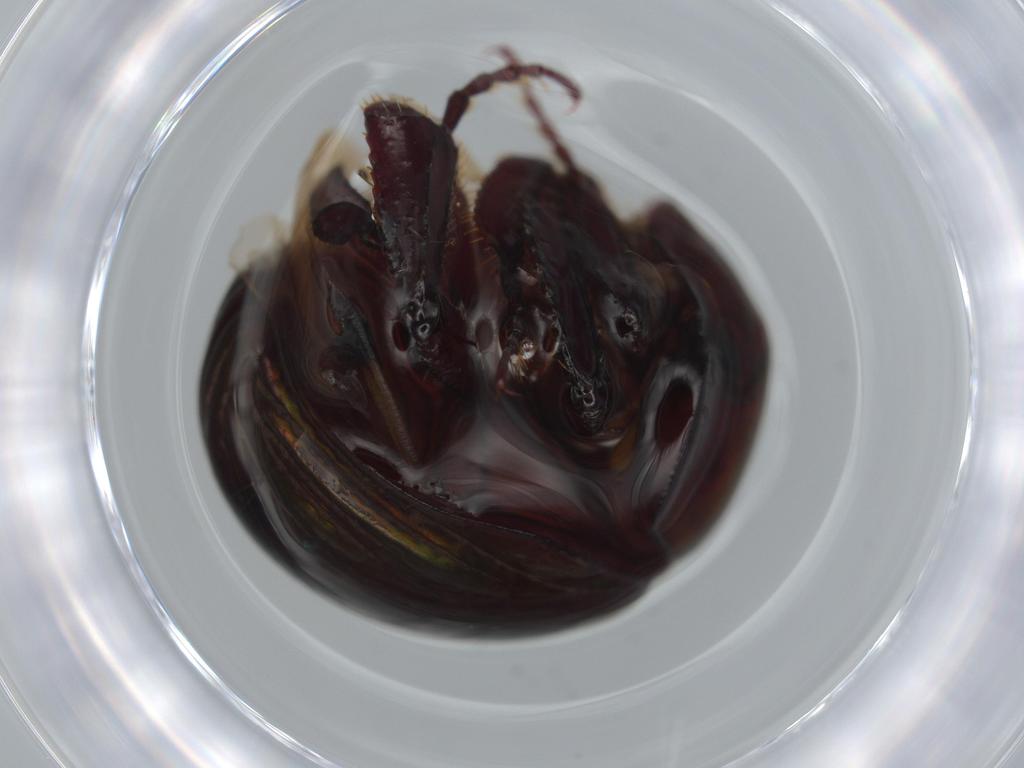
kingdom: Animalia
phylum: Arthropoda
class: Insecta
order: Coleoptera
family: Hybosoridae
